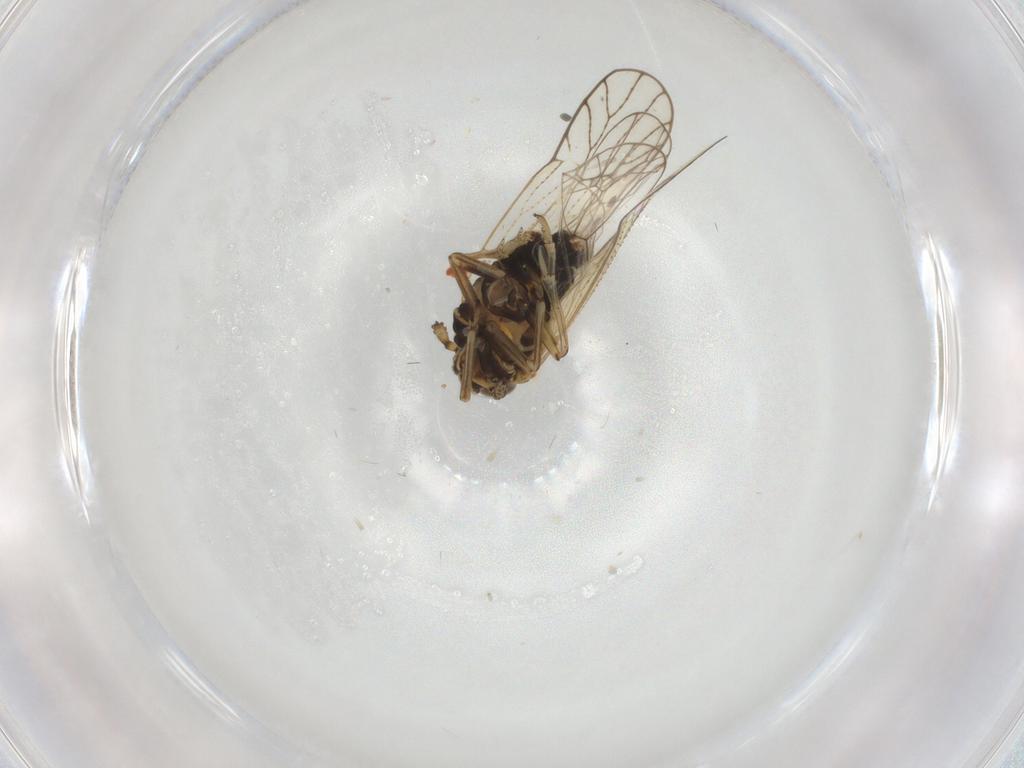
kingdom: Animalia
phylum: Arthropoda
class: Insecta
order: Hemiptera
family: Cicadellidae
